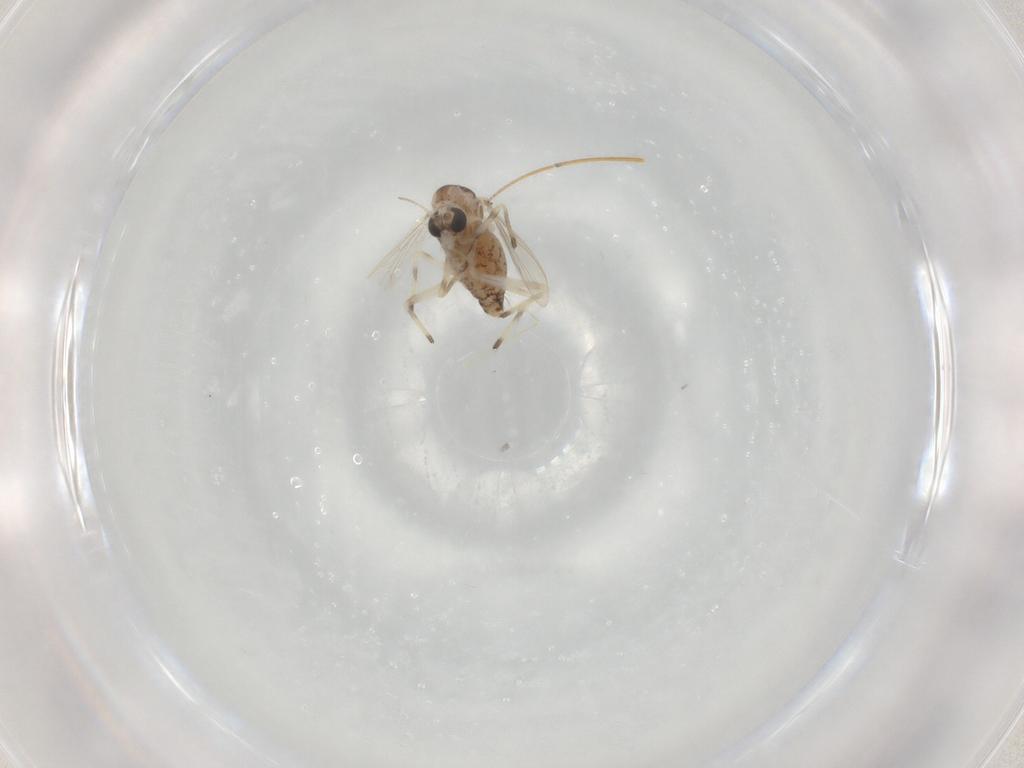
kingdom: Animalia
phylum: Arthropoda
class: Insecta
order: Diptera
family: Chironomidae
